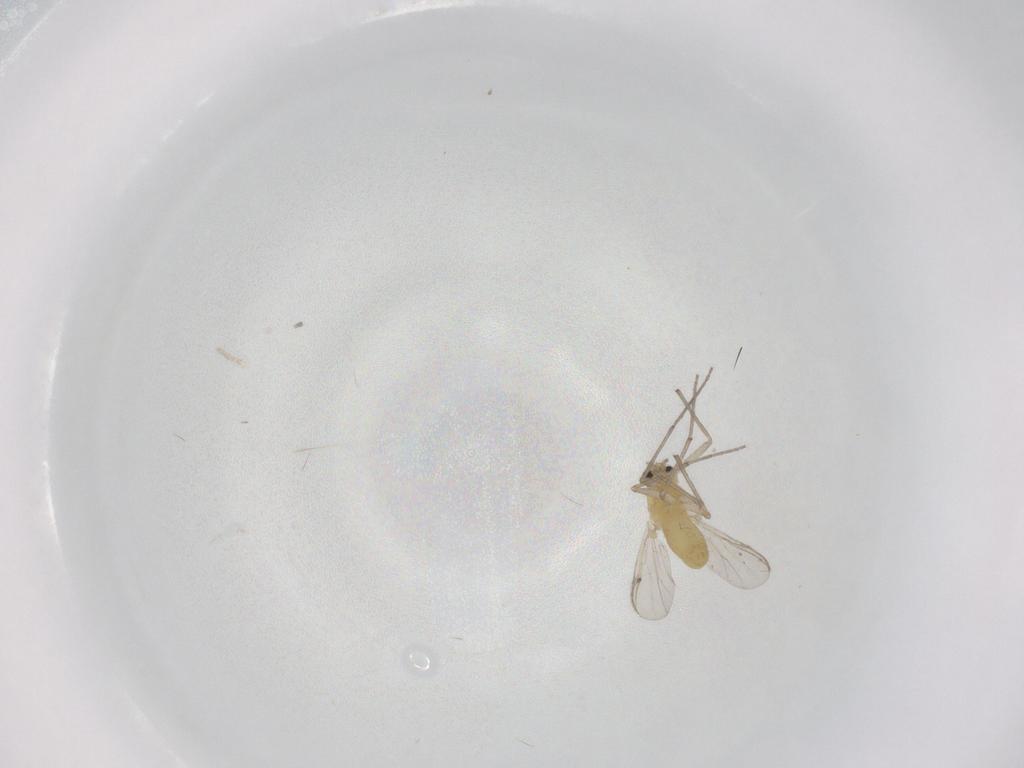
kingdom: Animalia
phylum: Arthropoda
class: Insecta
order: Diptera
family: Chironomidae
